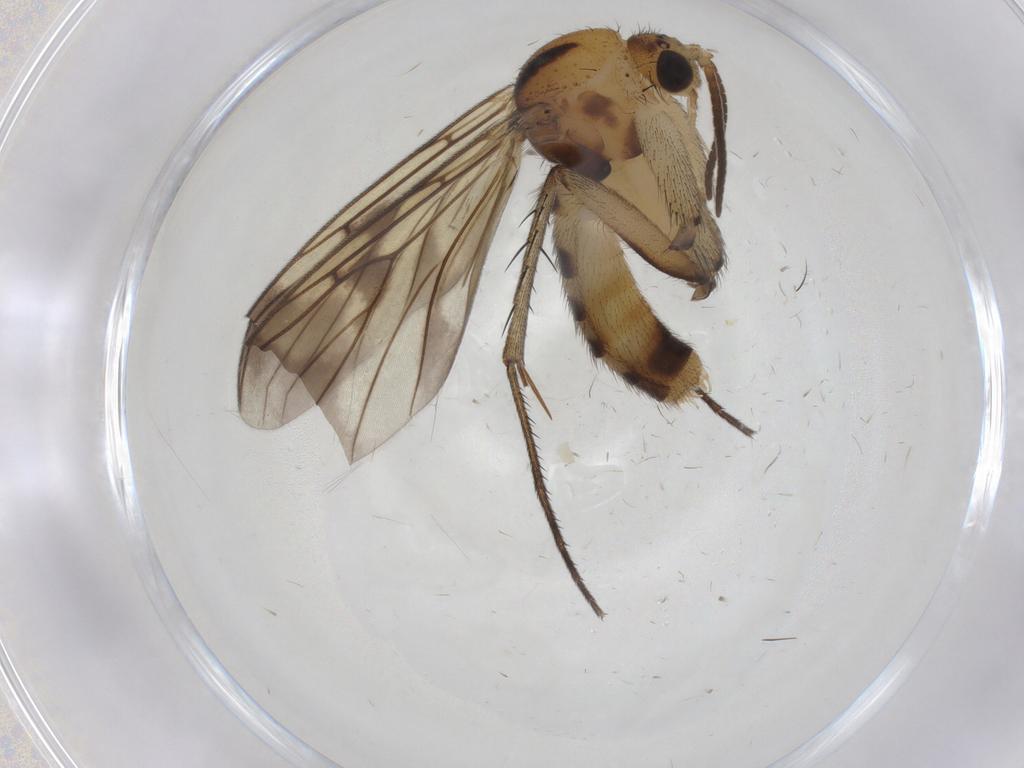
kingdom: Animalia
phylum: Arthropoda
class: Insecta
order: Diptera
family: Mycetophilidae
